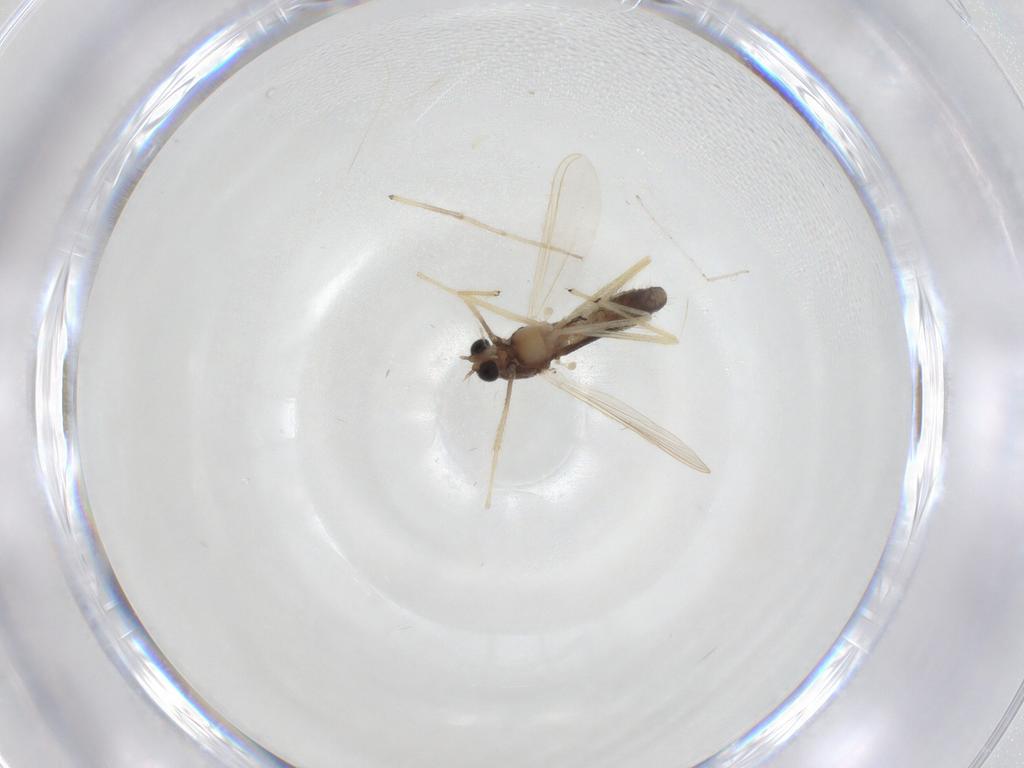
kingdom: Animalia
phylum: Arthropoda
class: Insecta
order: Diptera
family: Chironomidae
